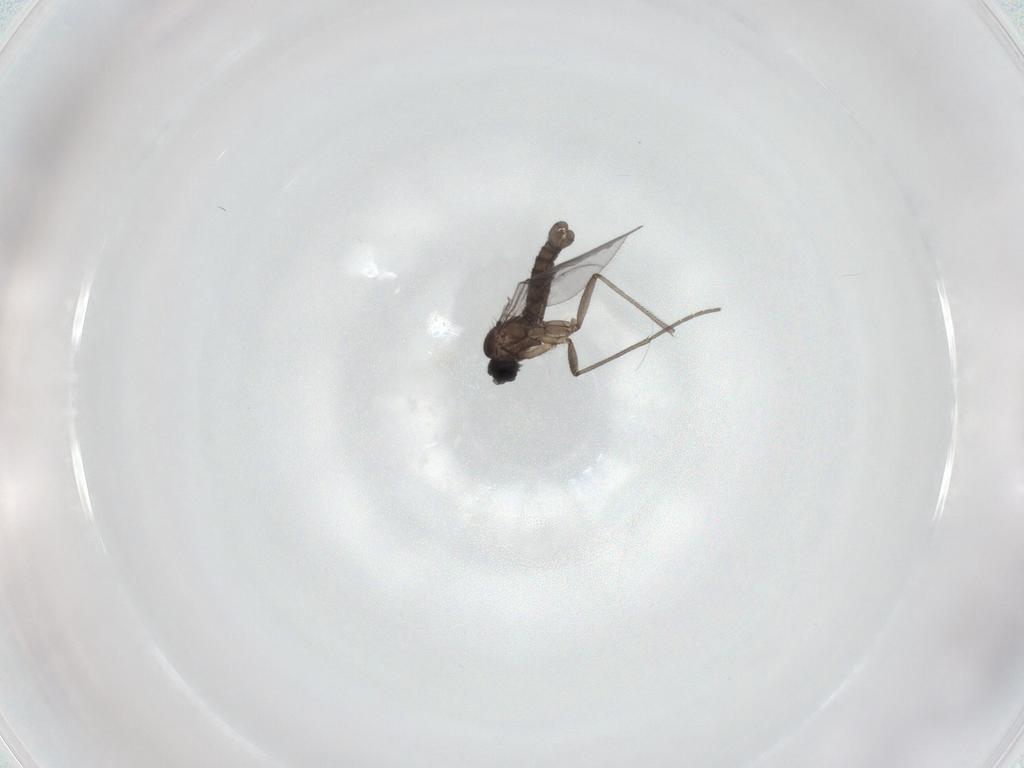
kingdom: Animalia
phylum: Arthropoda
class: Insecta
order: Diptera
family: Sciaridae
